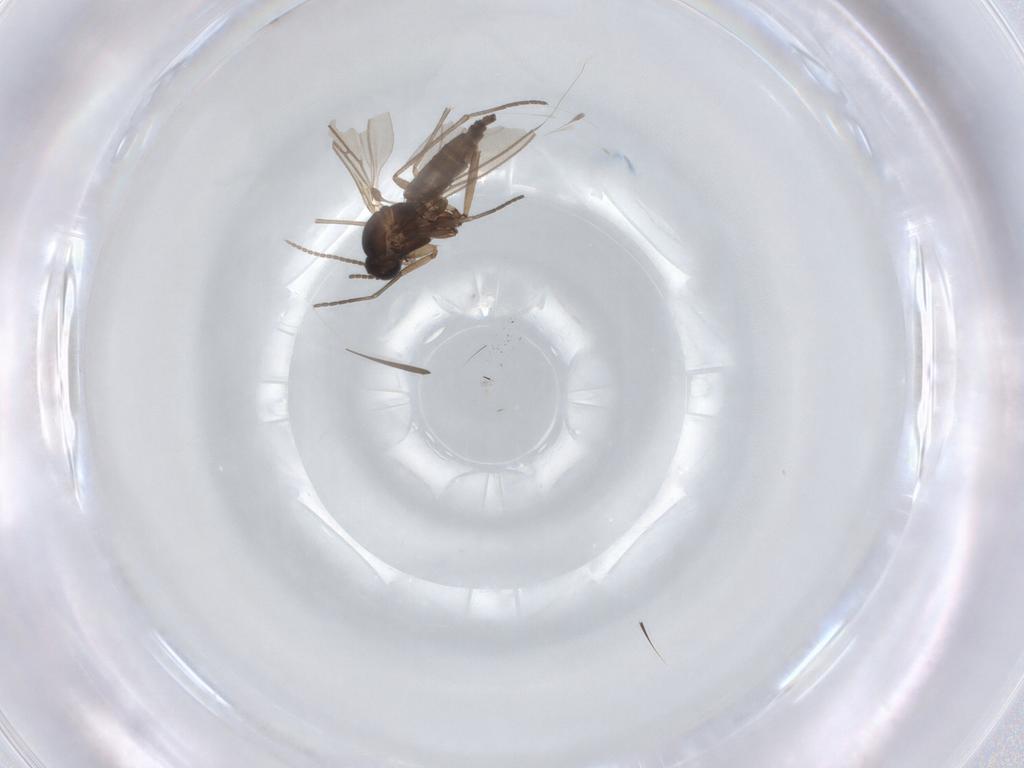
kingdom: Animalia
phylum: Arthropoda
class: Insecta
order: Diptera
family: Sciaridae
